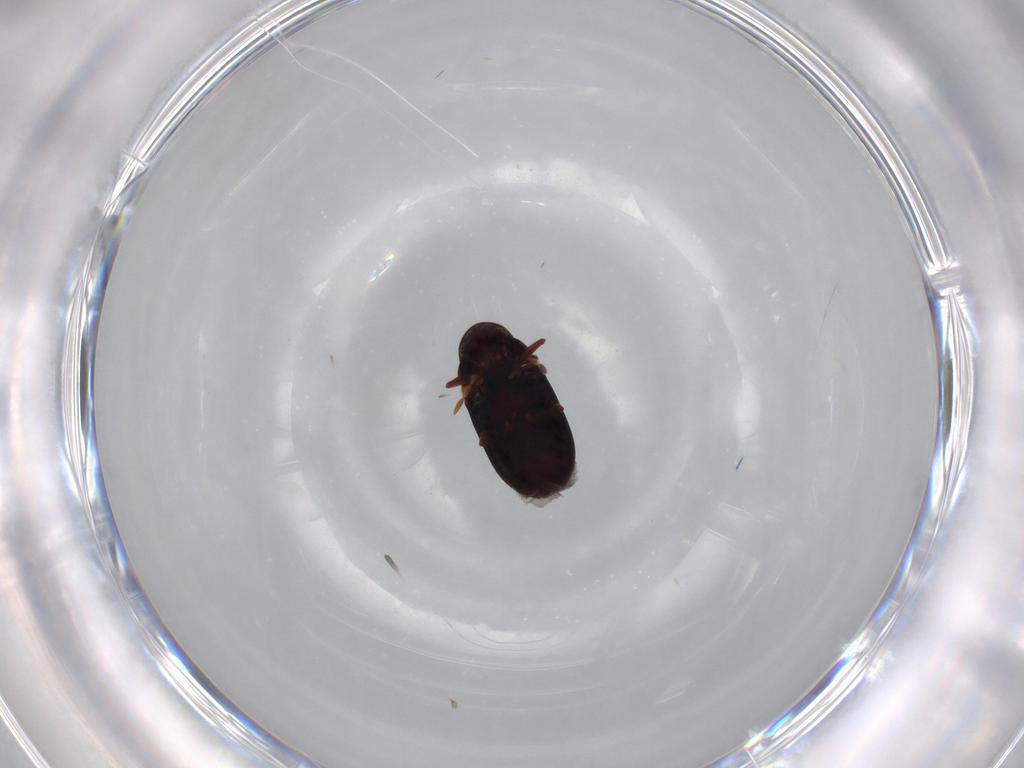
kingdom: Animalia
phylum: Arthropoda
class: Insecta
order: Coleoptera
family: Ptinidae
